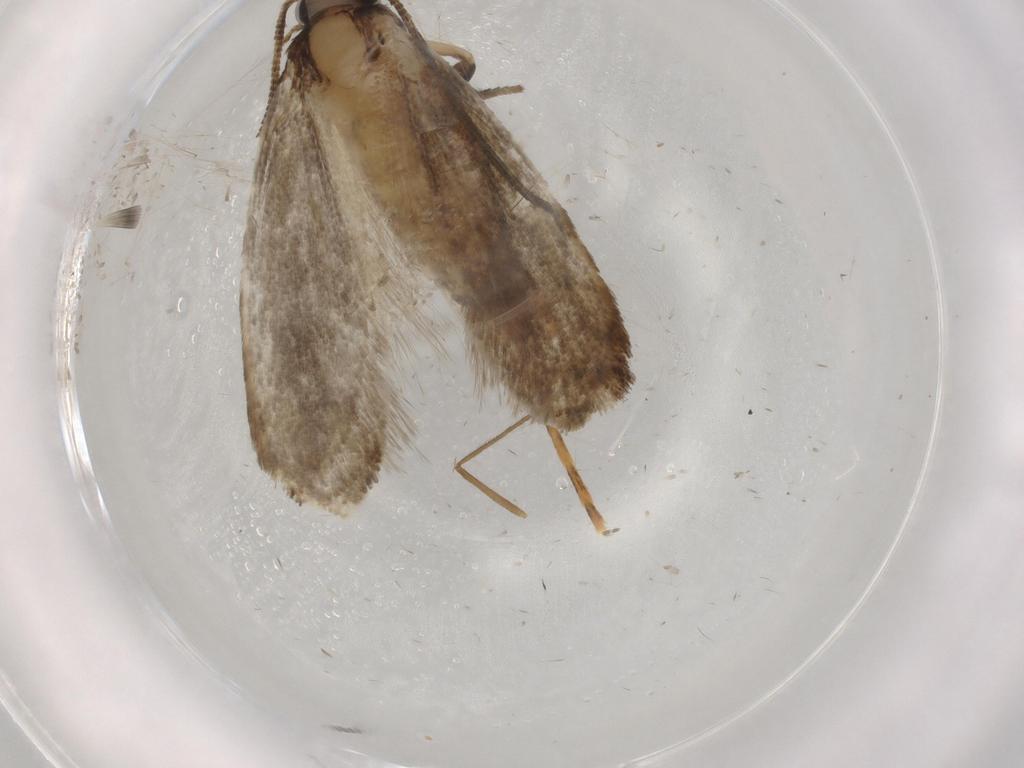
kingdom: Animalia
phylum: Arthropoda
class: Insecta
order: Lepidoptera
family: Tineidae
